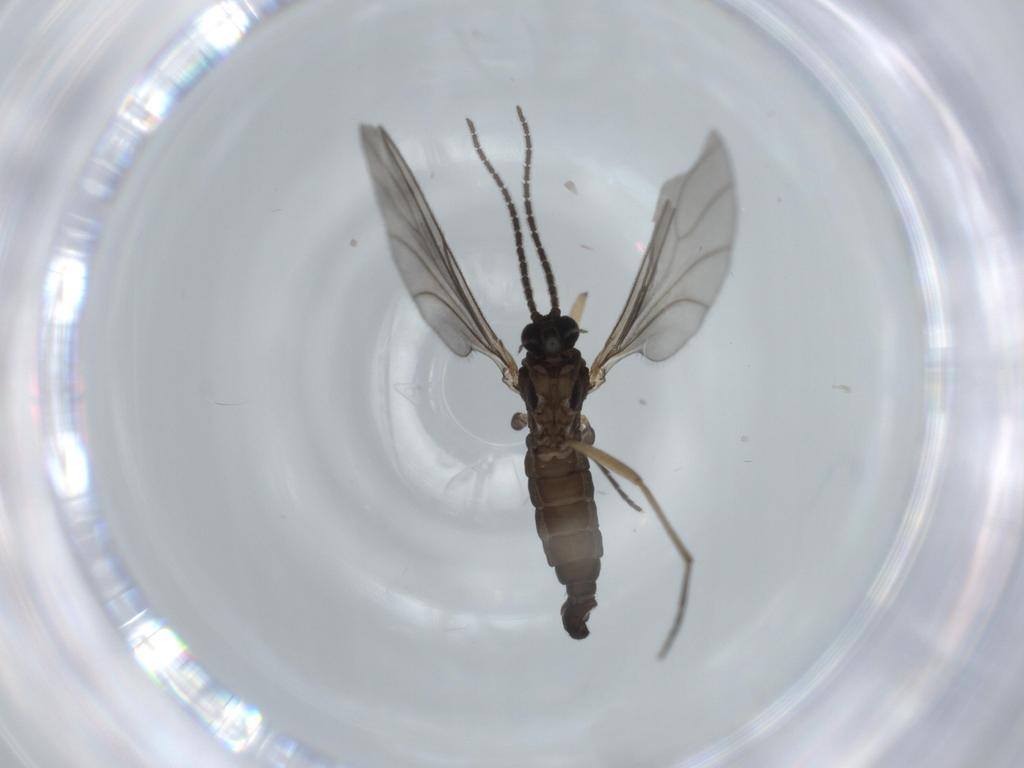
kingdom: Animalia
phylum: Arthropoda
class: Insecta
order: Diptera
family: Sciaridae
